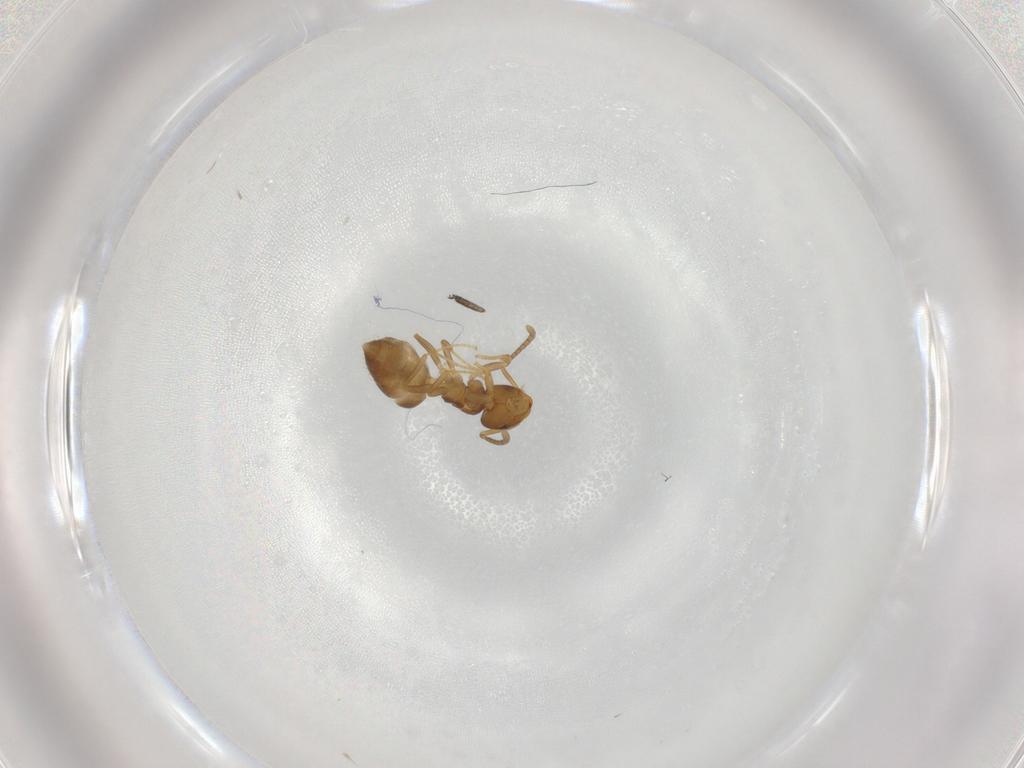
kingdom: Animalia
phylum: Arthropoda
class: Insecta
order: Hymenoptera
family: Formicidae
